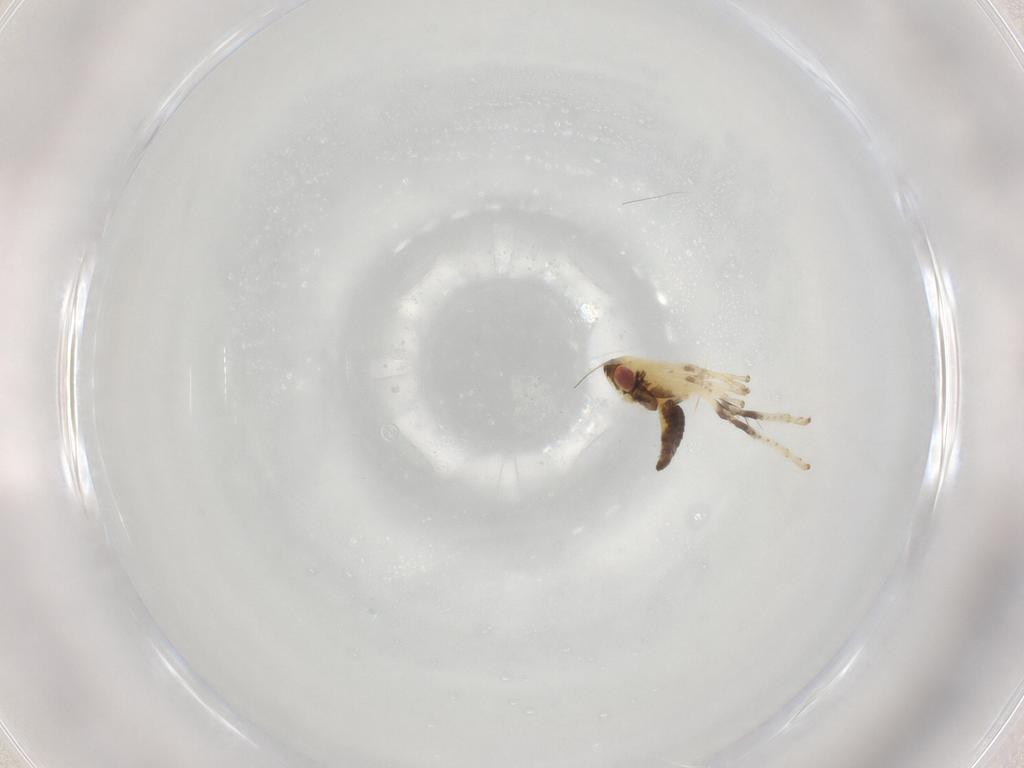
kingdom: Animalia
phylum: Arthropoda
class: Insecta
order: Hemiptera
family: Cicadellidae
